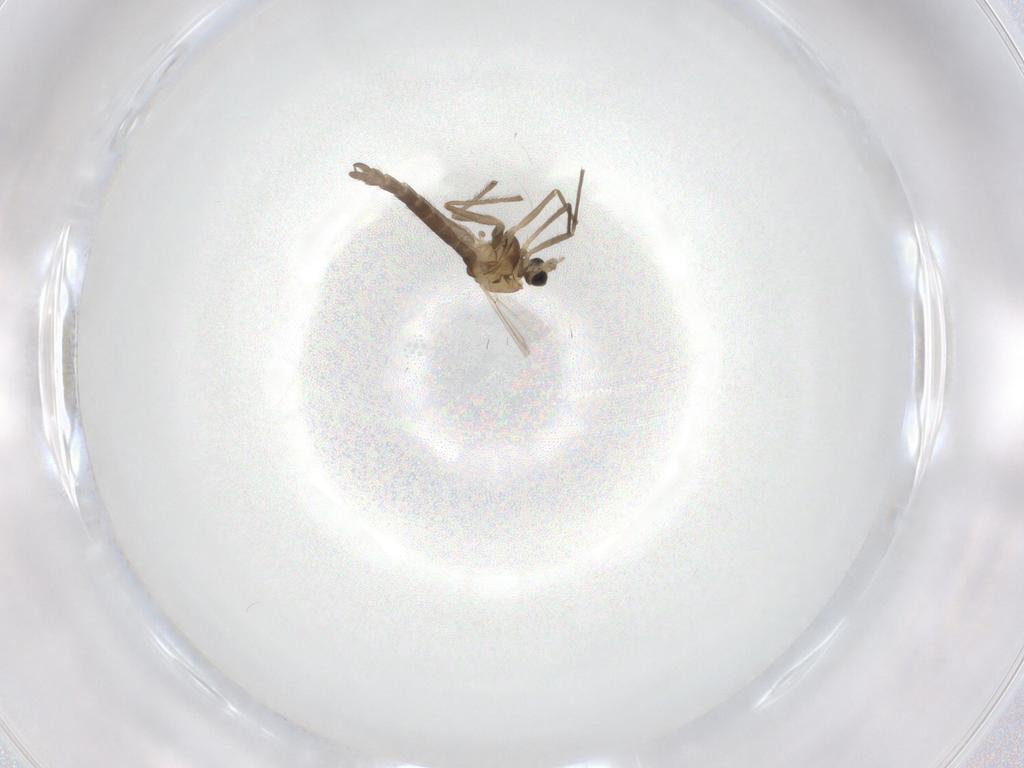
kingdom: Animalia
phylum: Arthropoda
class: Insecta
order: Diptera
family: Chironomidae
